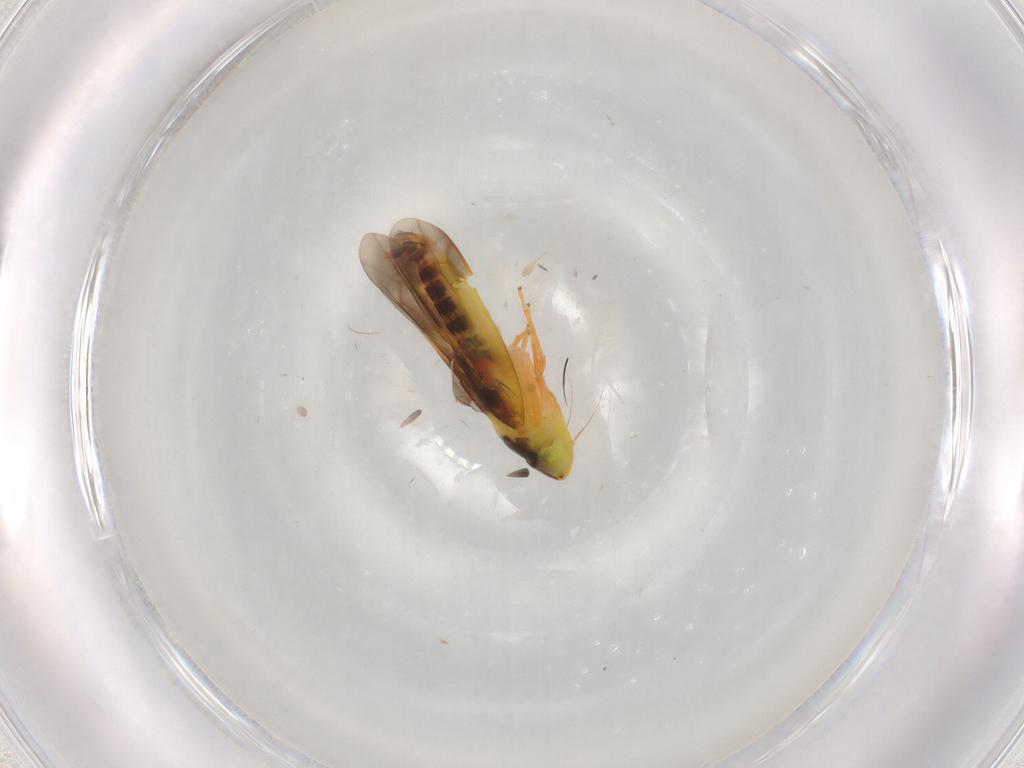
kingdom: Animalia
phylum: Arthropoda
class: Insecta
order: Hemiptera
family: Cicadellidae
